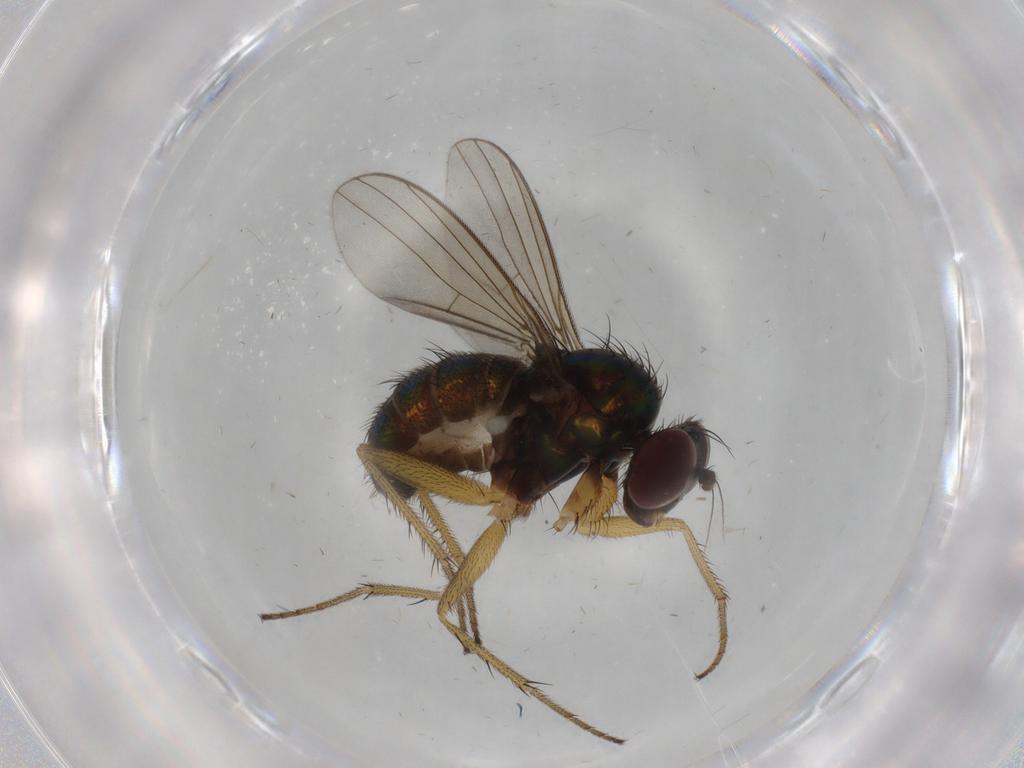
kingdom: Animalia
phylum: Arthropoda
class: Insecta
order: Diptera
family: Dolichopodidae
